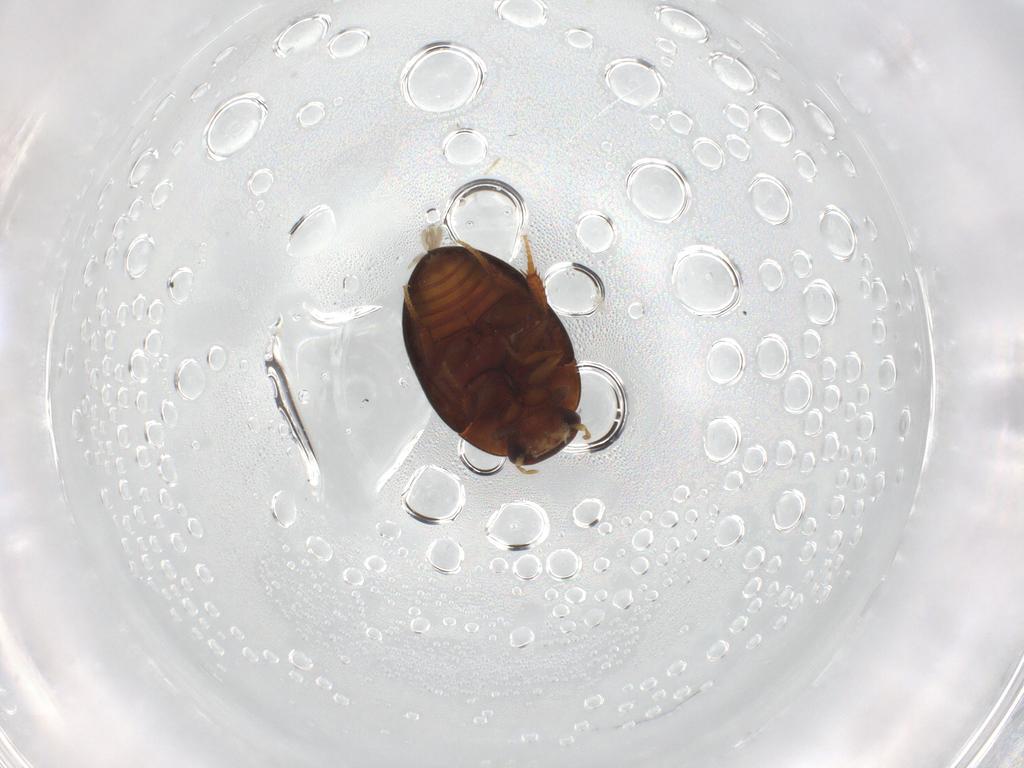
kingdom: Animalia
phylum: Arthropoda
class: Insecta
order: Coleoptera
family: Hydrophilidae
